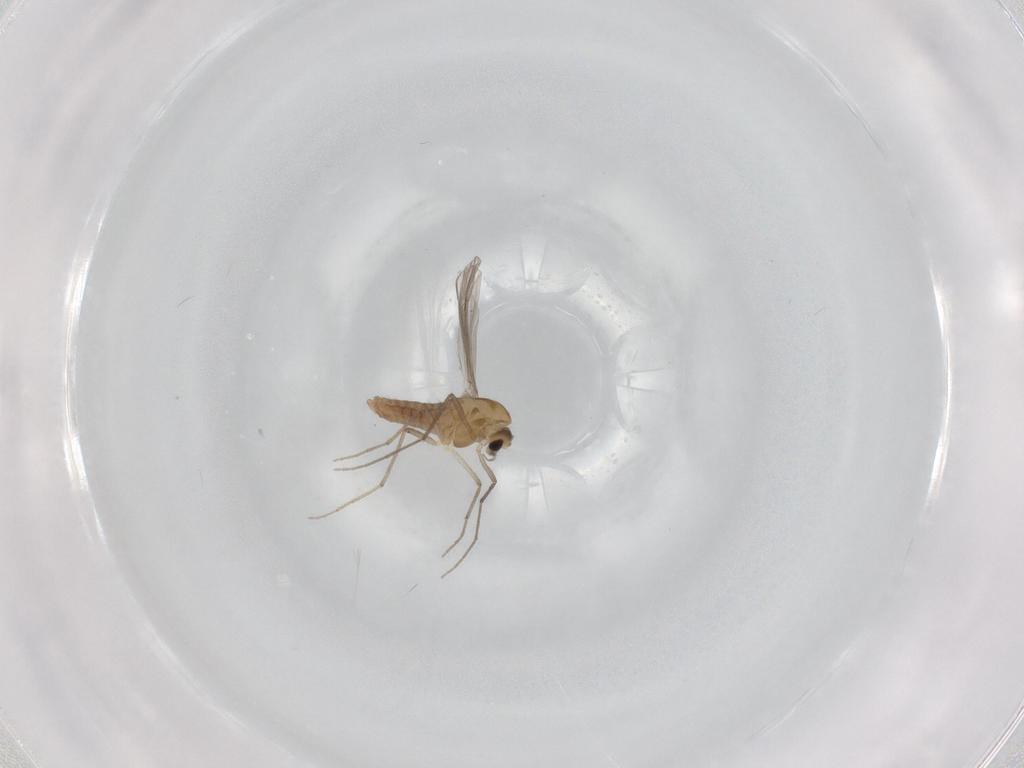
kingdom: Animalia
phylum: Arthropoda
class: Insecta
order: Diptera
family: Chironomidae
